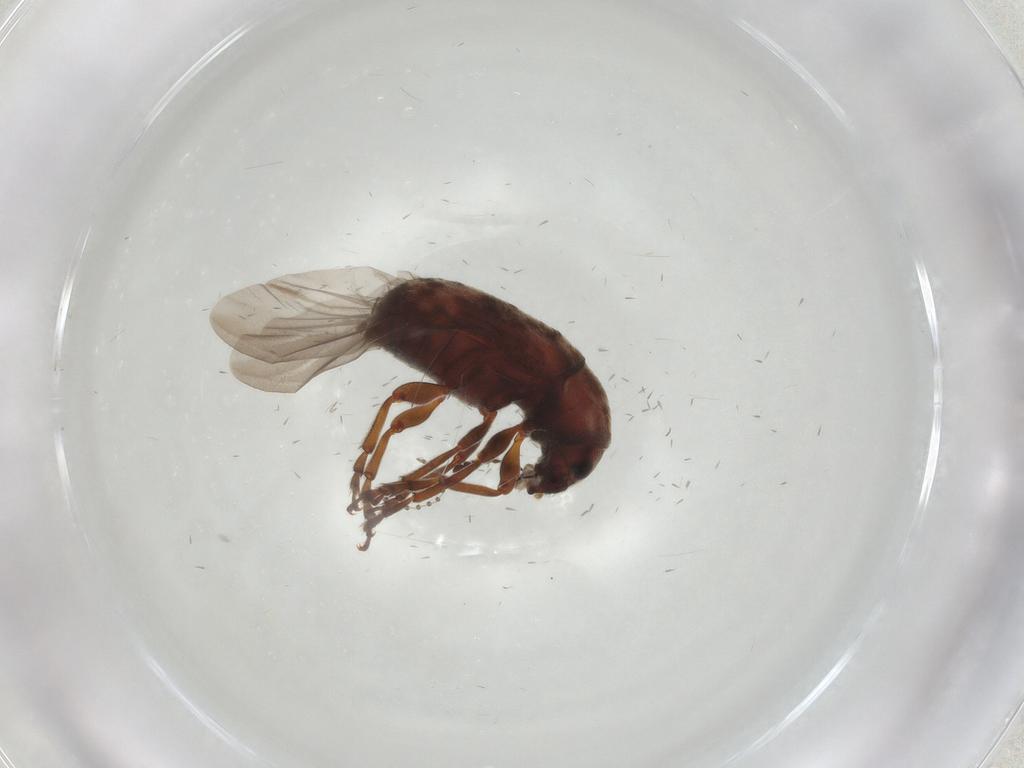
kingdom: Animalia
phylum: Arthropoda
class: Insecta
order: Coleoptera
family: Anthribidae
